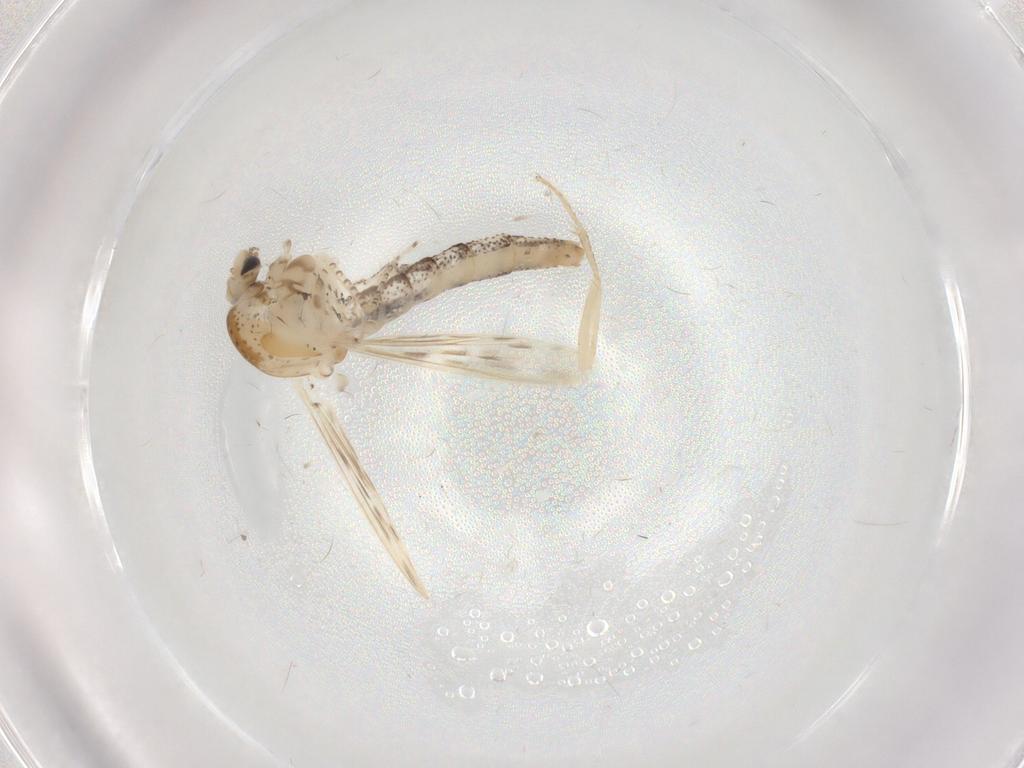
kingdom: Animalia
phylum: Arthropoda
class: Insecta
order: Diptera
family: Chaoboridae
